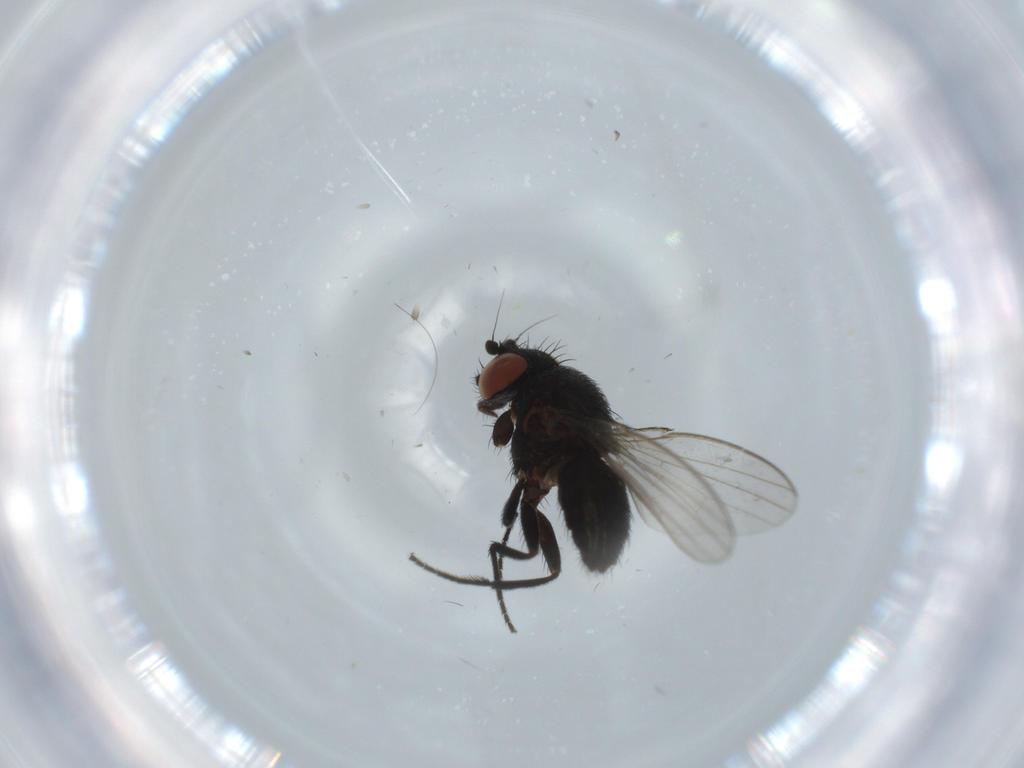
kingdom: Animalia
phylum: Arthropoda
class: Insecta
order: Diptera
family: Milichiidae
